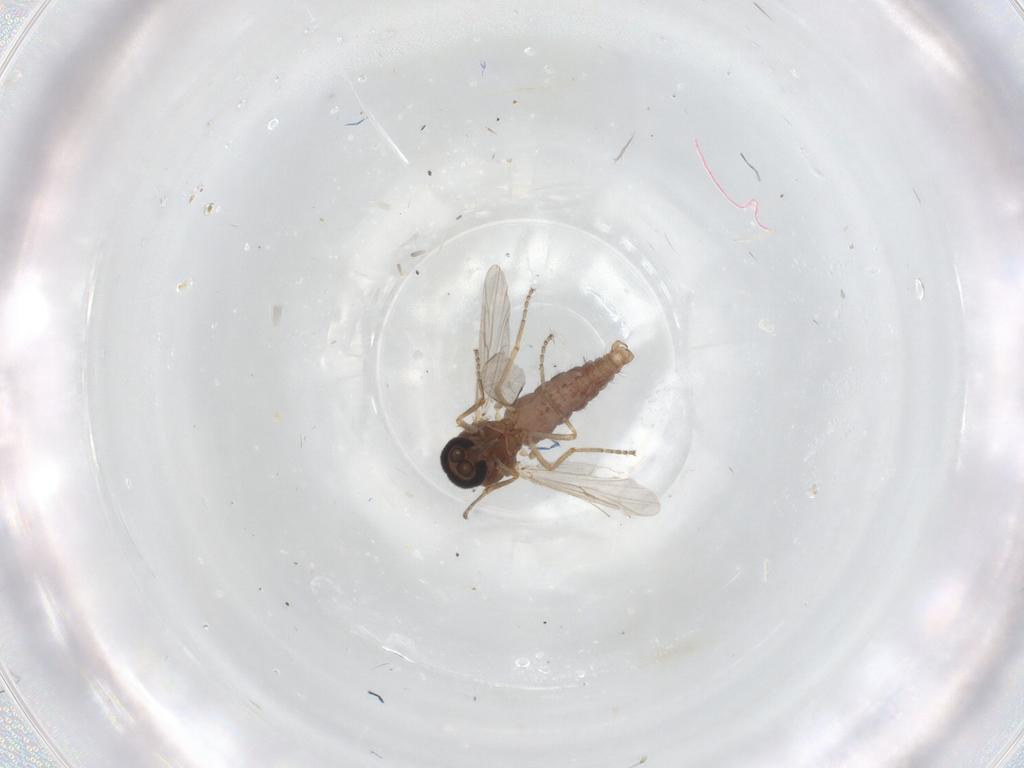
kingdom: Animalia
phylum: Arthropoda
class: Insecta
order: Diptera
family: Ceratopogonidae
